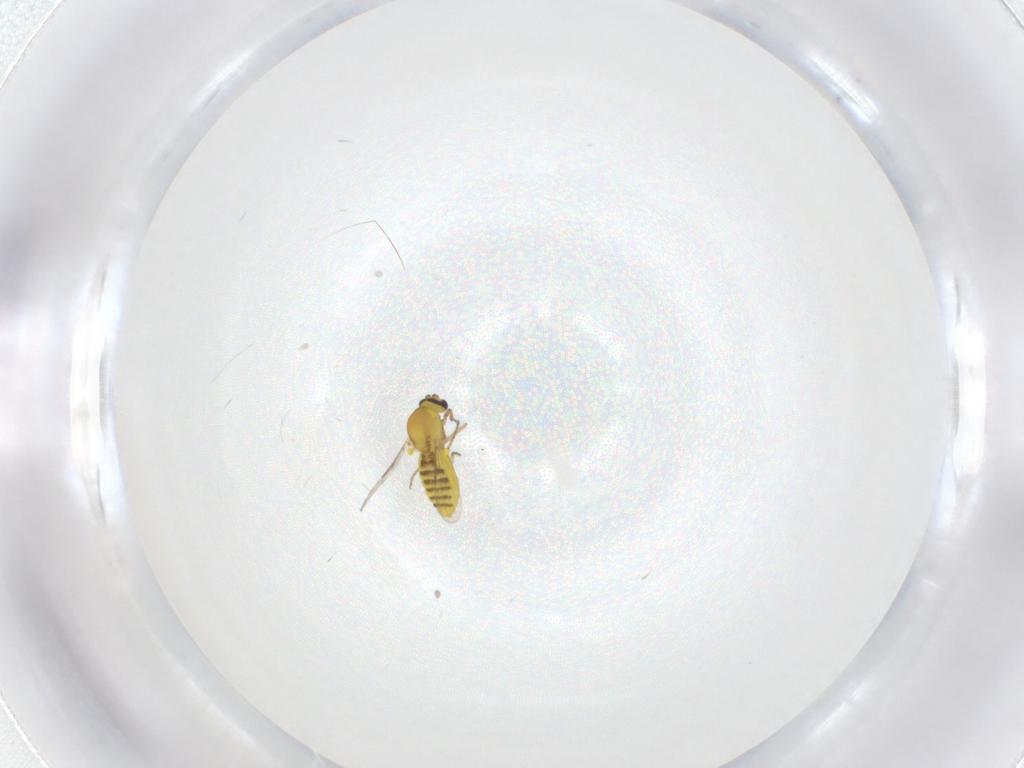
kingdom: Animalia
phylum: Arthropoda
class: Insecta
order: Diptera
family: Ceratopogonidae
